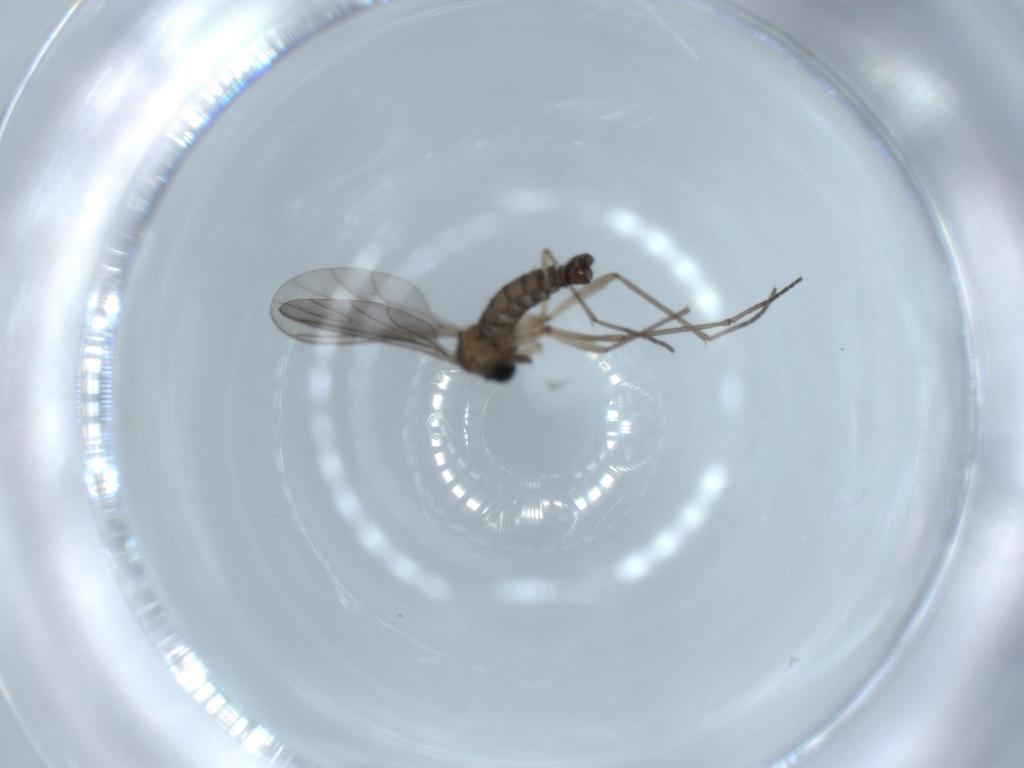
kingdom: Animalia
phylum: Arthropoda
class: Insecta
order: Diptera
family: Sciaridae
